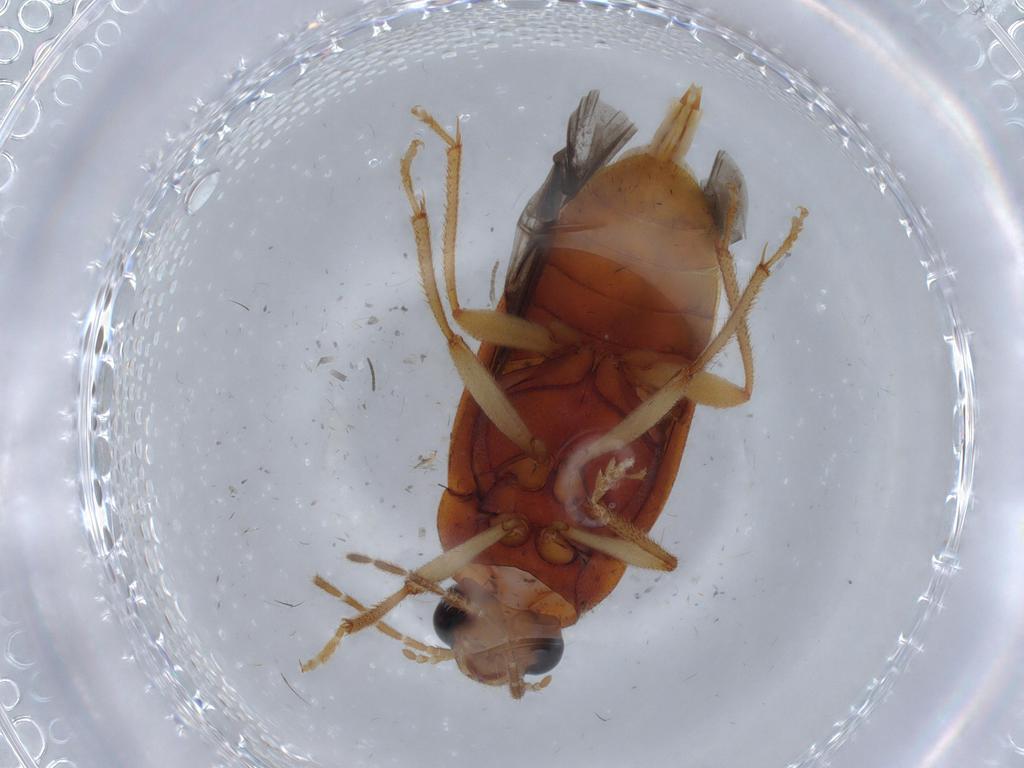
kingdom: Animalia
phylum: Arthropoda
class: Insecta
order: Coleoptera
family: Ptilodactylidae
